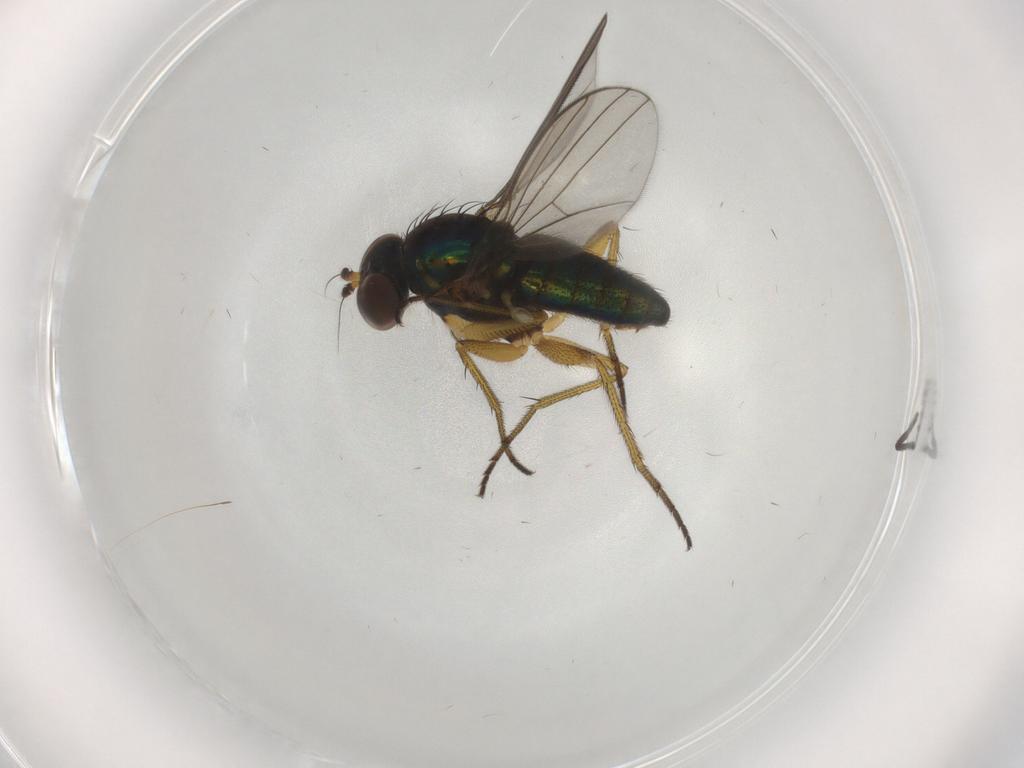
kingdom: Animalia
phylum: Arthropoda
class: Insecta
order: Diptera
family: Dolichopodidae
